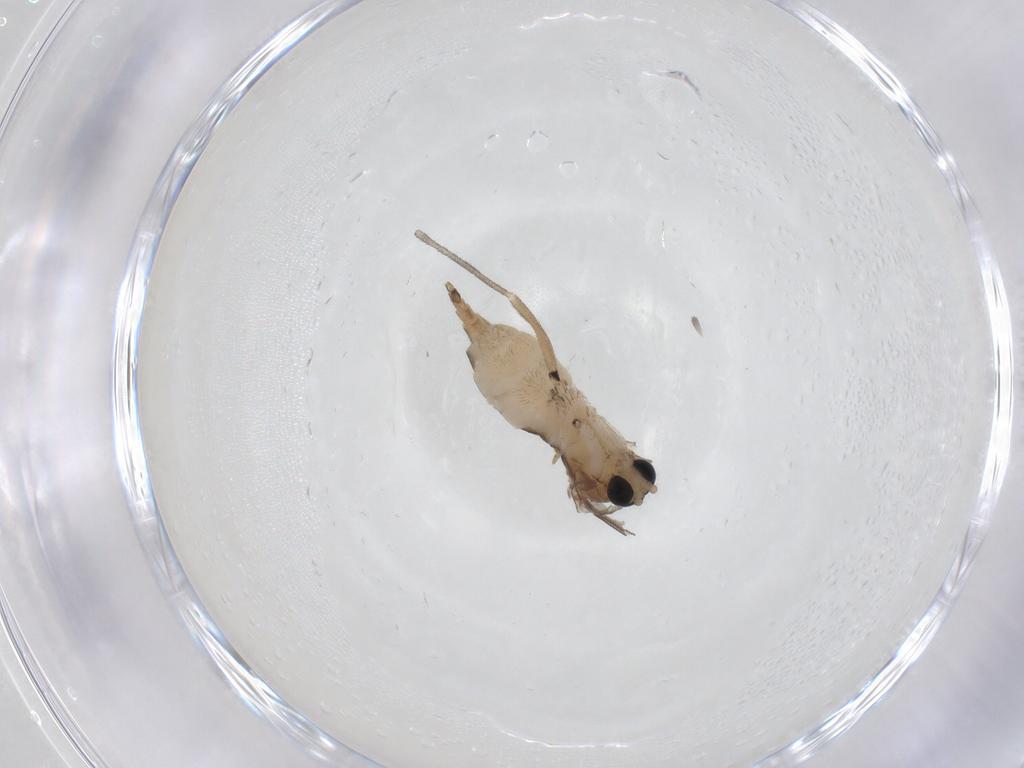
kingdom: Animalia
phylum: Arthropoda
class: Insecta
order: Diptera
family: Sciaridae
